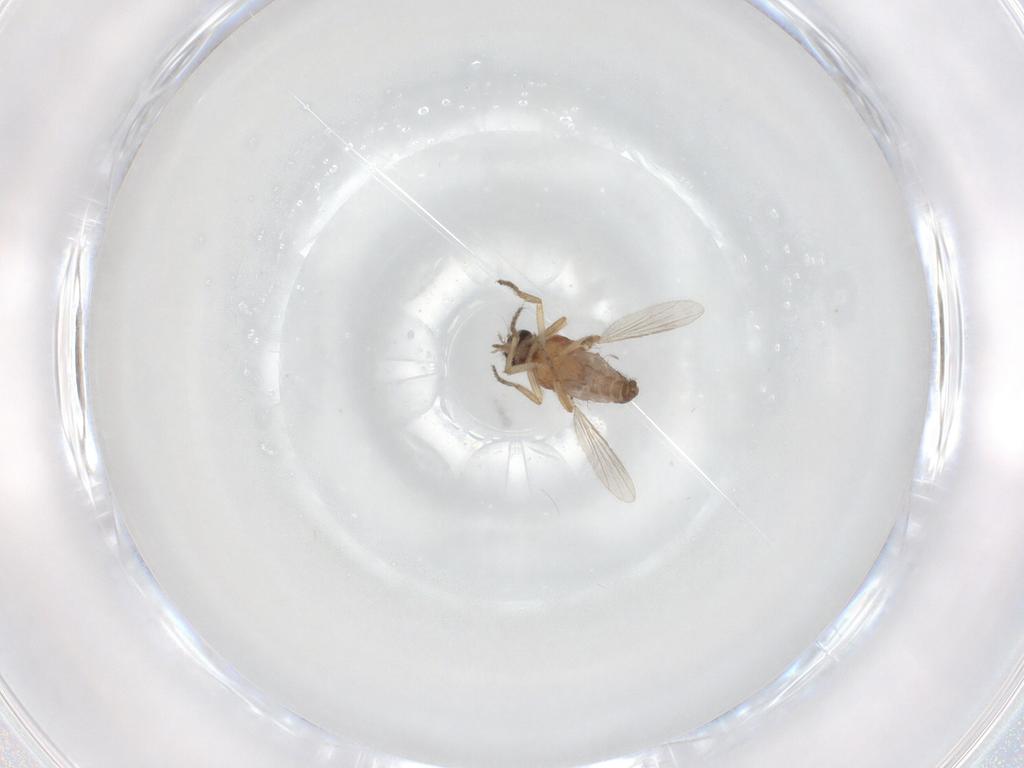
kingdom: Animalia
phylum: Arthropoda
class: Insecta
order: Diptera
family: Ceratopogonidae
